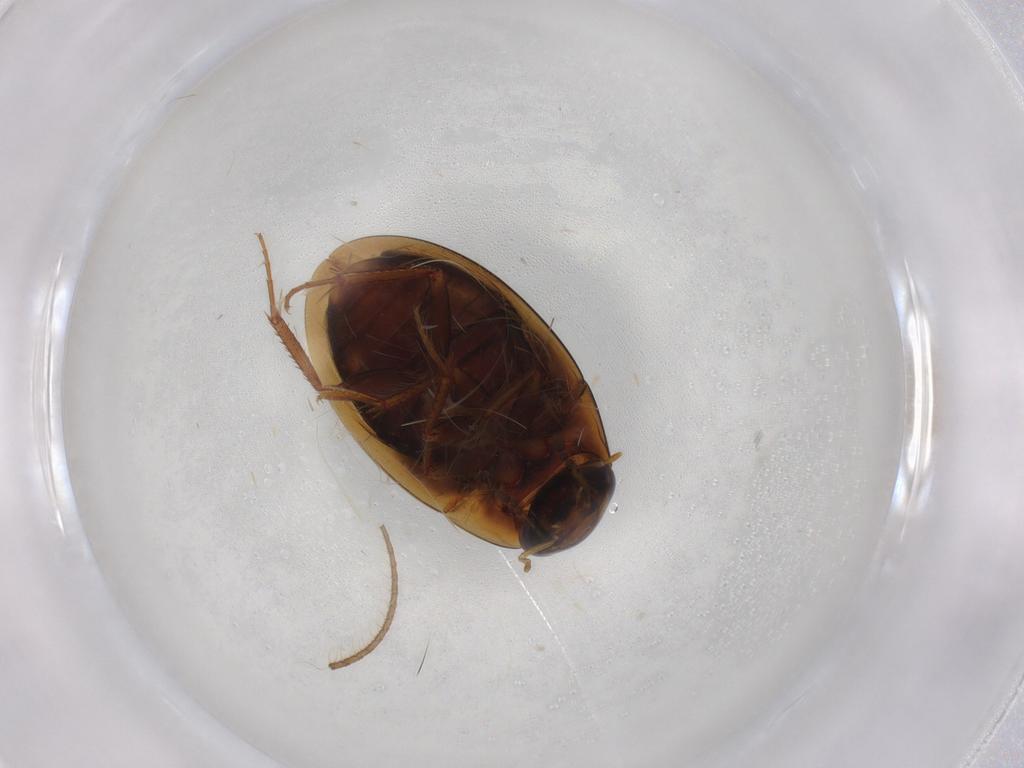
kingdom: Animalia
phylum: Arthropoda
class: Insecta
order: Coleoptera
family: Hydrophilidae
